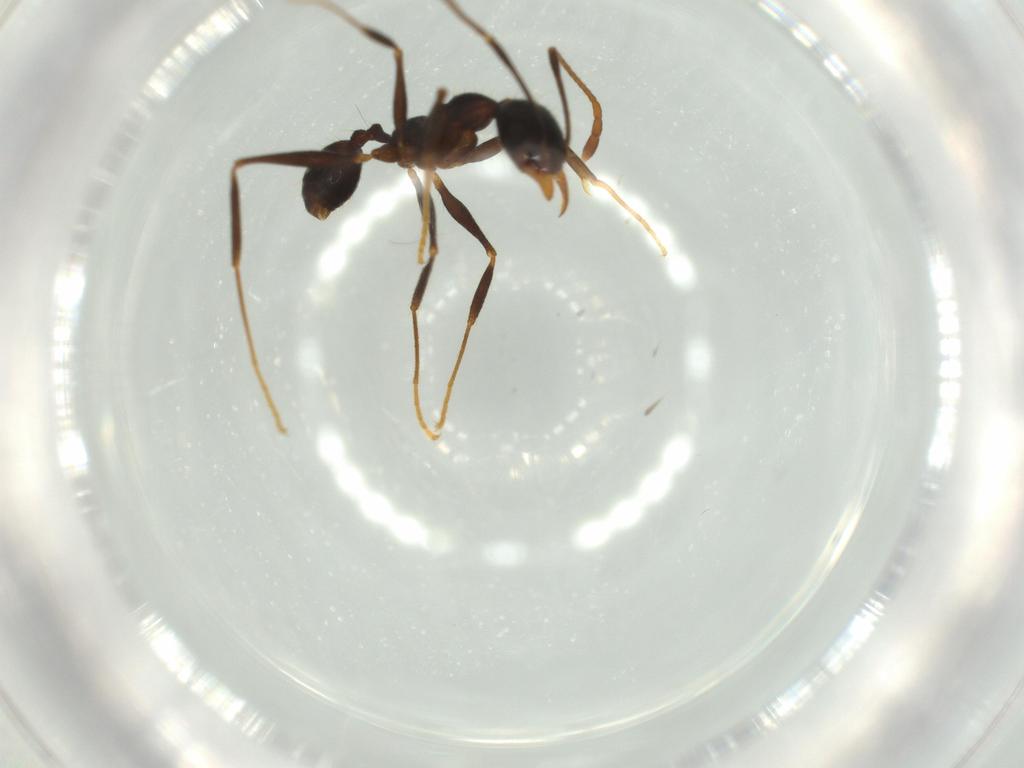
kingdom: Animalia
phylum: Arthropoda
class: Insecta
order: Hymenoptera
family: Formicidae
